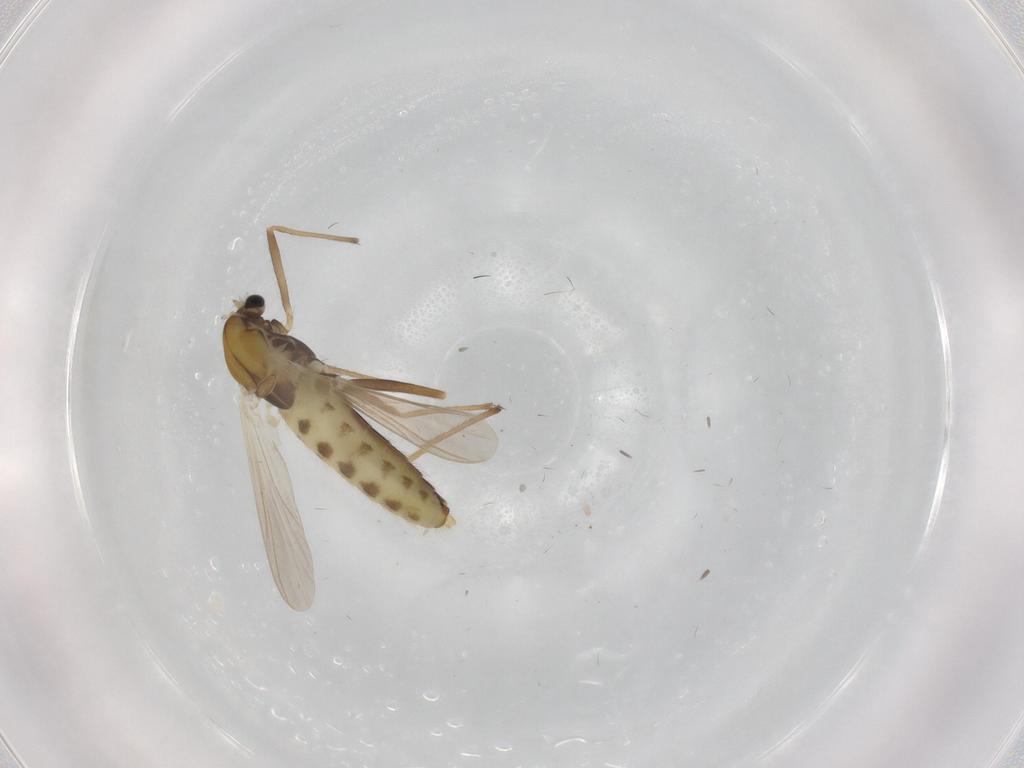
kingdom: Animalia
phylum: Arthropoda
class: Insecta
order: Diptera
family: Chironomidae
